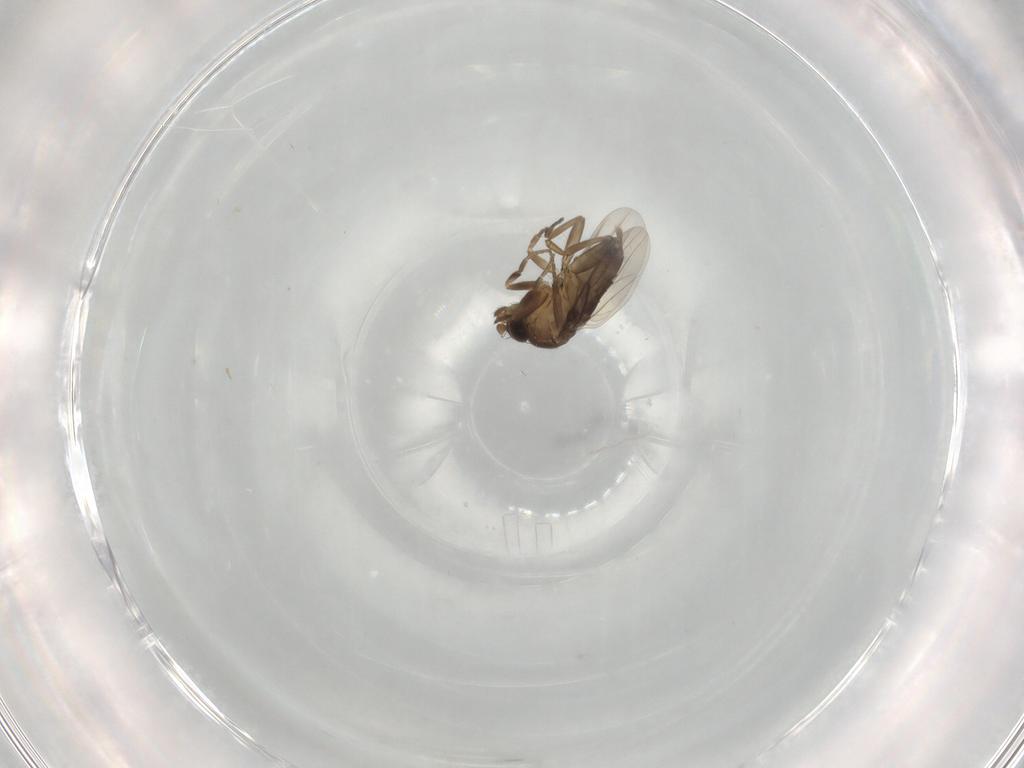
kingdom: Animalia
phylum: Arthropoda
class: Insecta
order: Diptera
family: Phoridae
